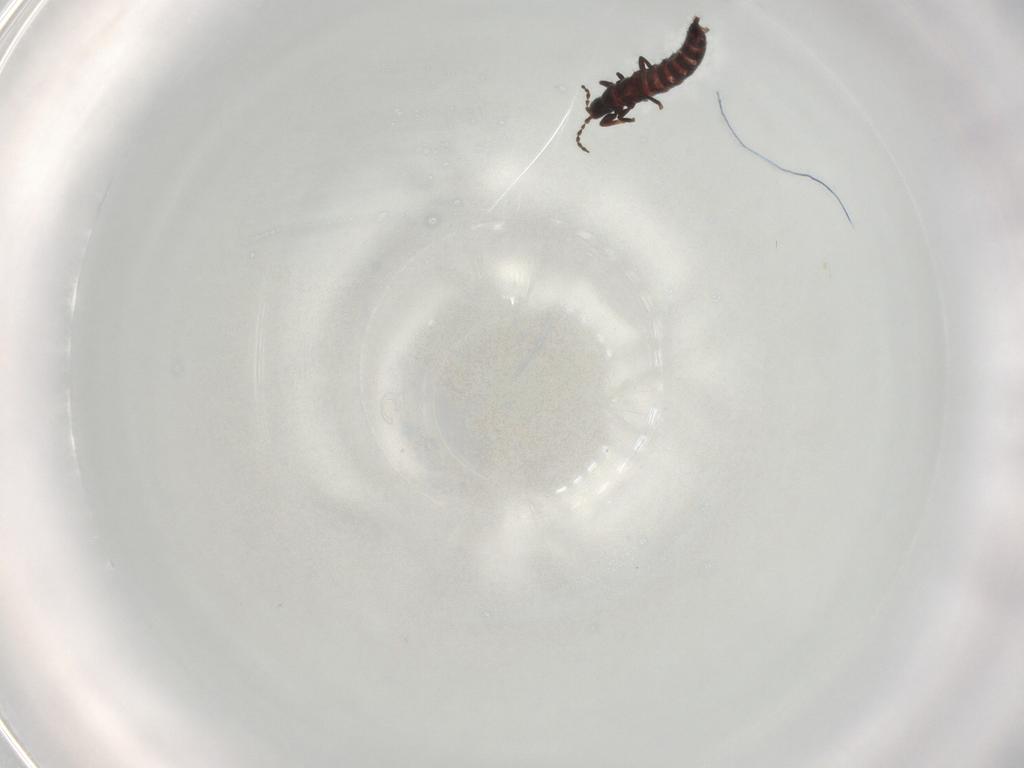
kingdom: Animalia
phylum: Arthropoda
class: Insecta
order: Thysanoptera
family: Phlaeothripidae
